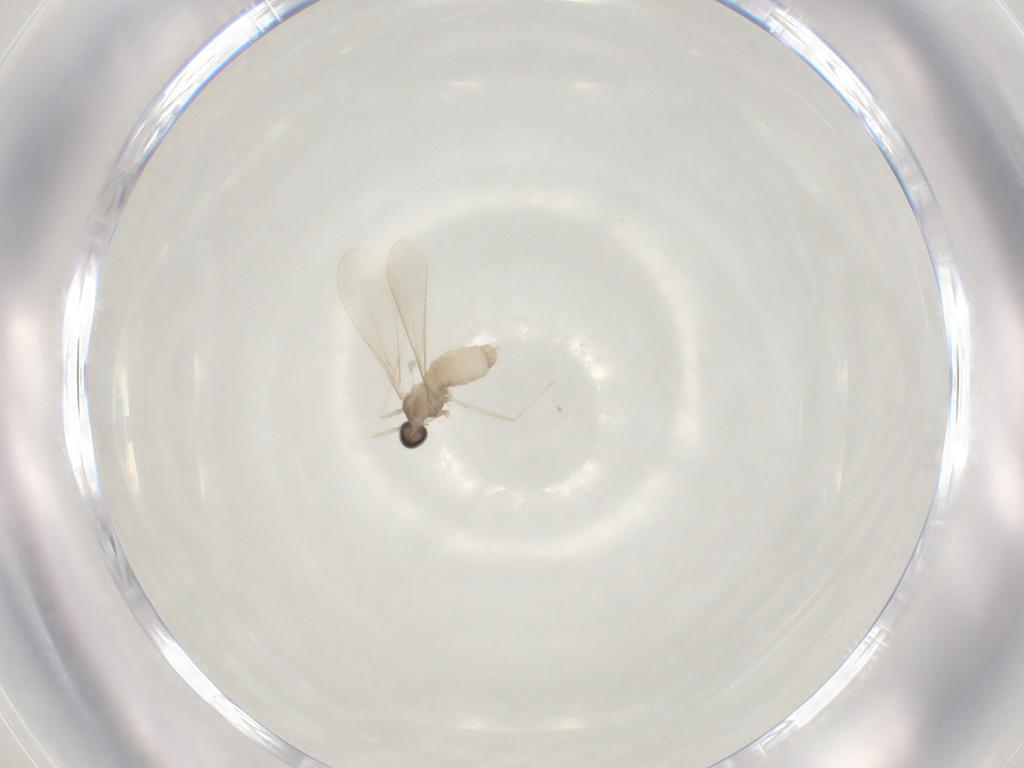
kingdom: Animalia
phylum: Arthropoda
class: Insecta
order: Diptera
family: Cecidomyiidae
